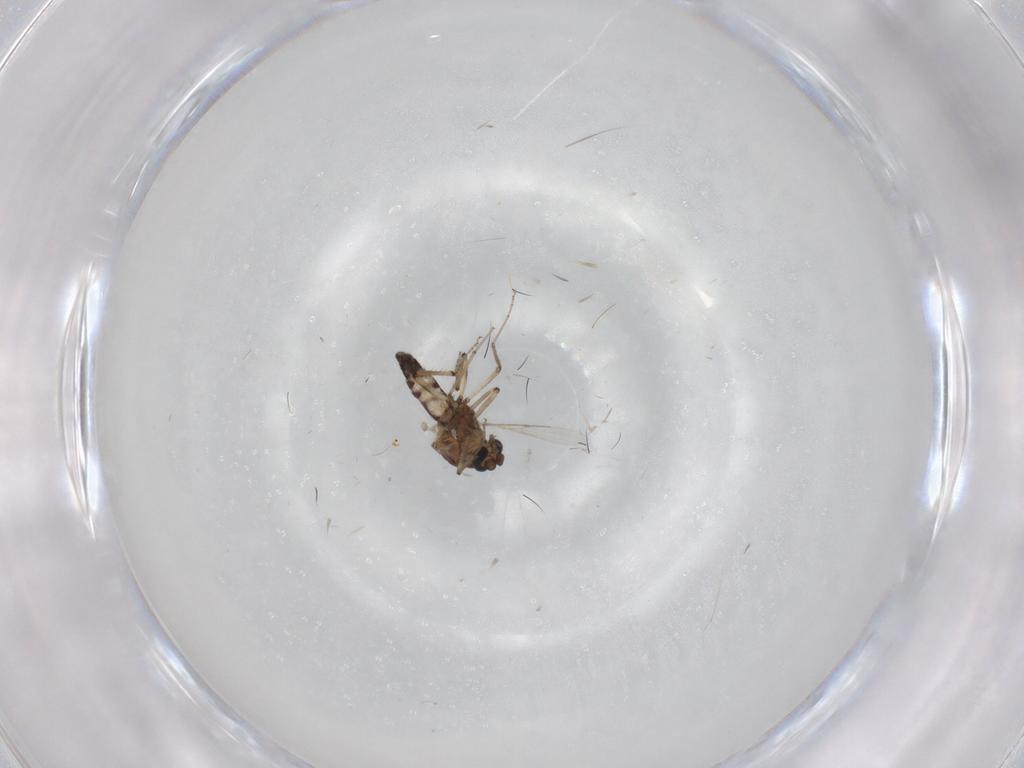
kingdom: Animalia
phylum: Arthropoda
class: Insecta
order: Diptera
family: Ceratopogonidae
